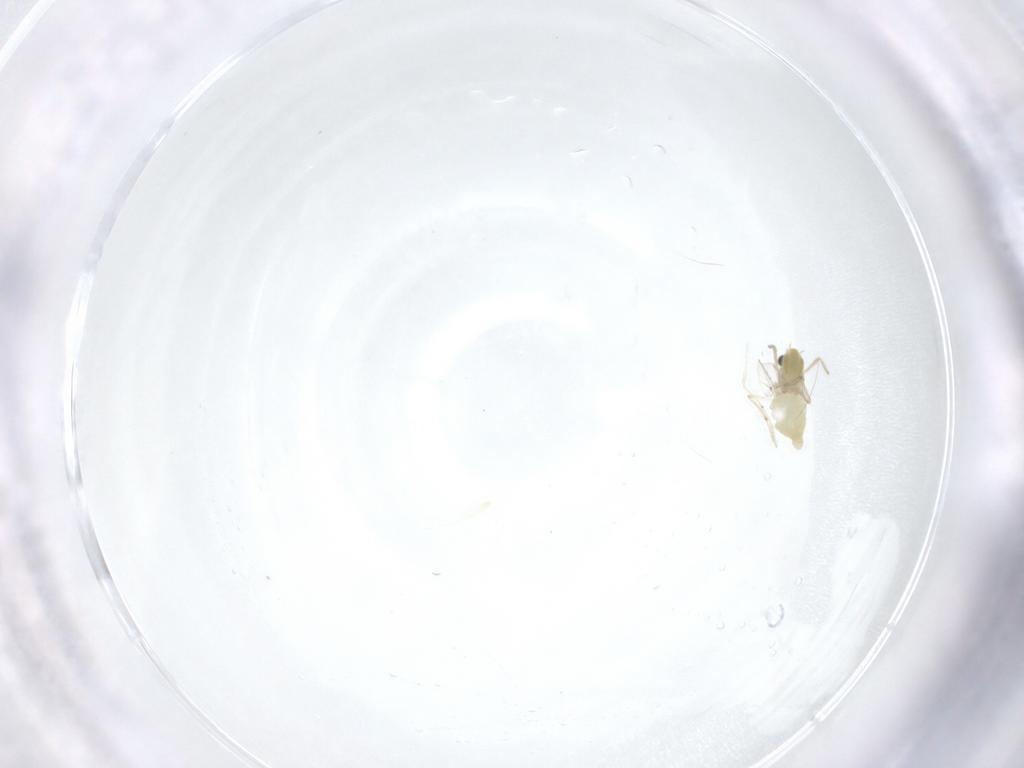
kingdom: Animalia
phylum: Arthropoda
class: Insecta
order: Diptera
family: Chironomidae
